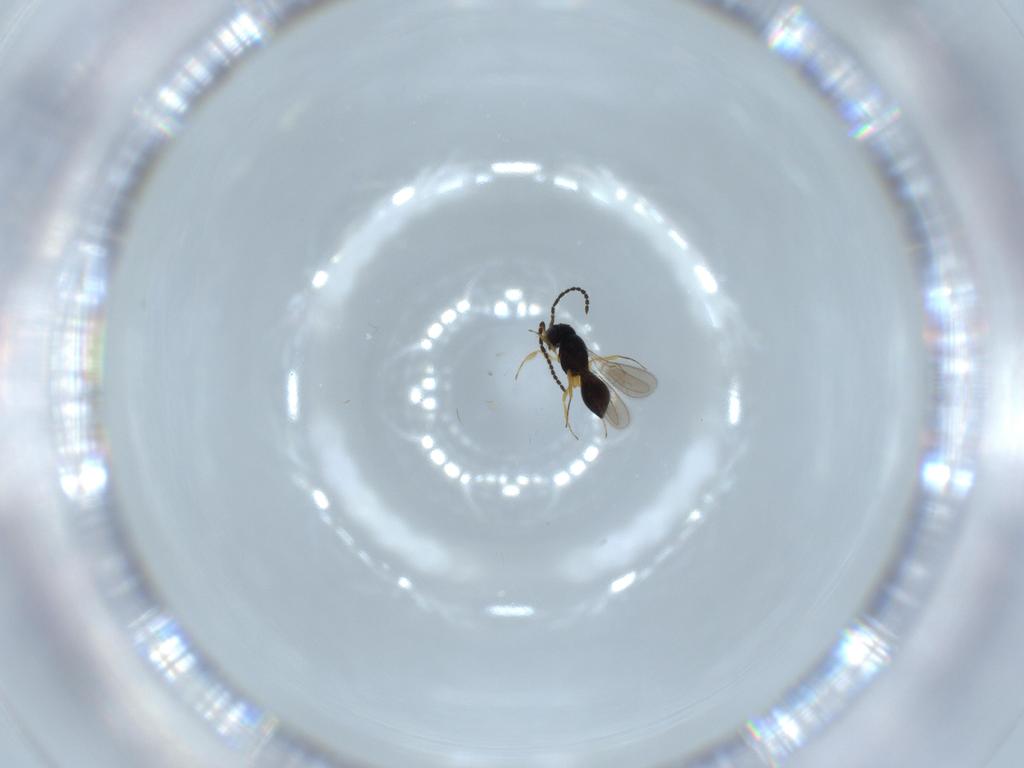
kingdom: Animalia
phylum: Arthropoda
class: Insecta
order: Hymenoptera
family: Scelionidae
